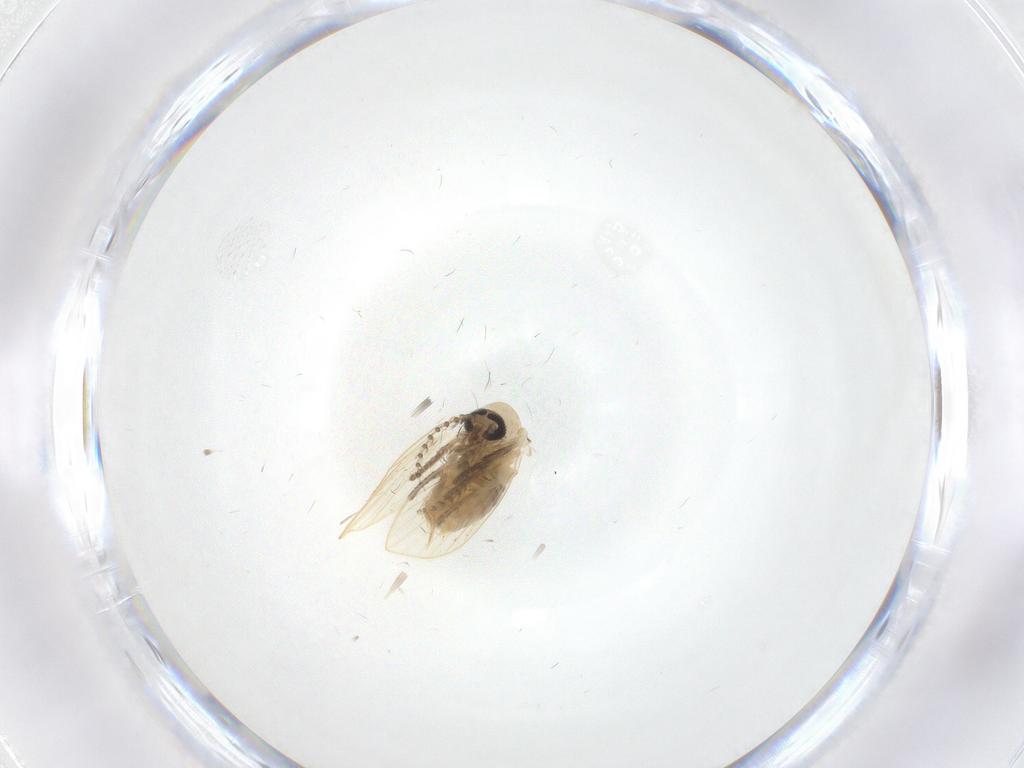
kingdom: Animalia
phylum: Arthropoda
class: Insecta
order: Diptera
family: Psychodidae
